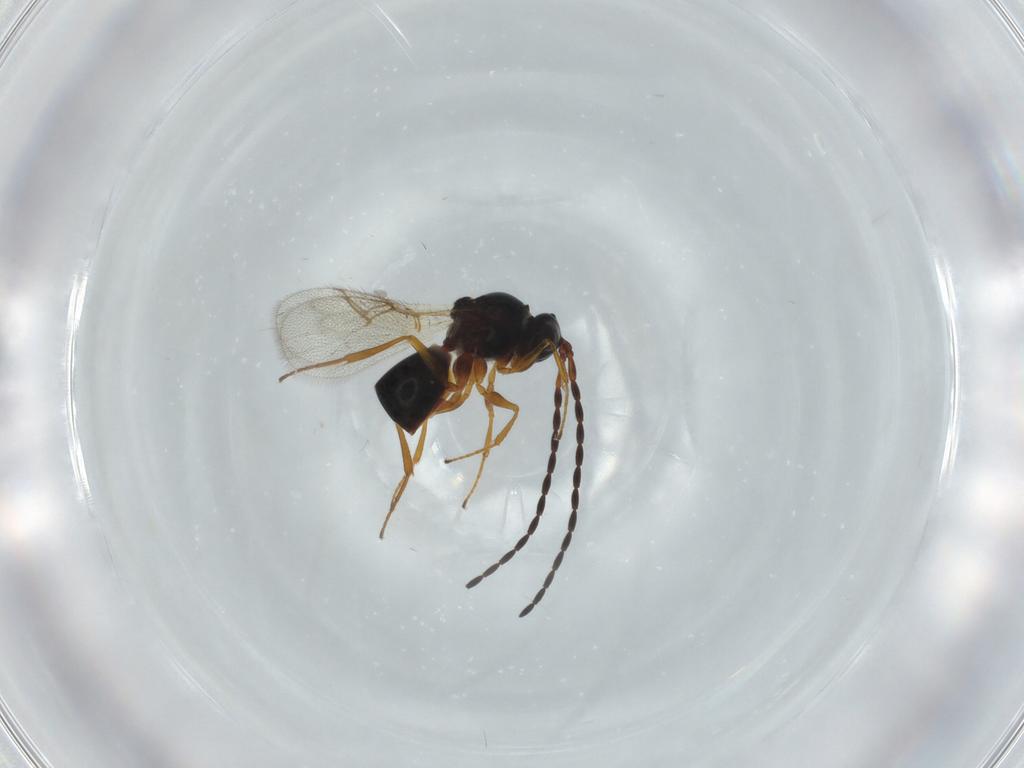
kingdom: Animalia
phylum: Arthropoda
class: Insecta
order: Hymenoptera
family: Figitidae
